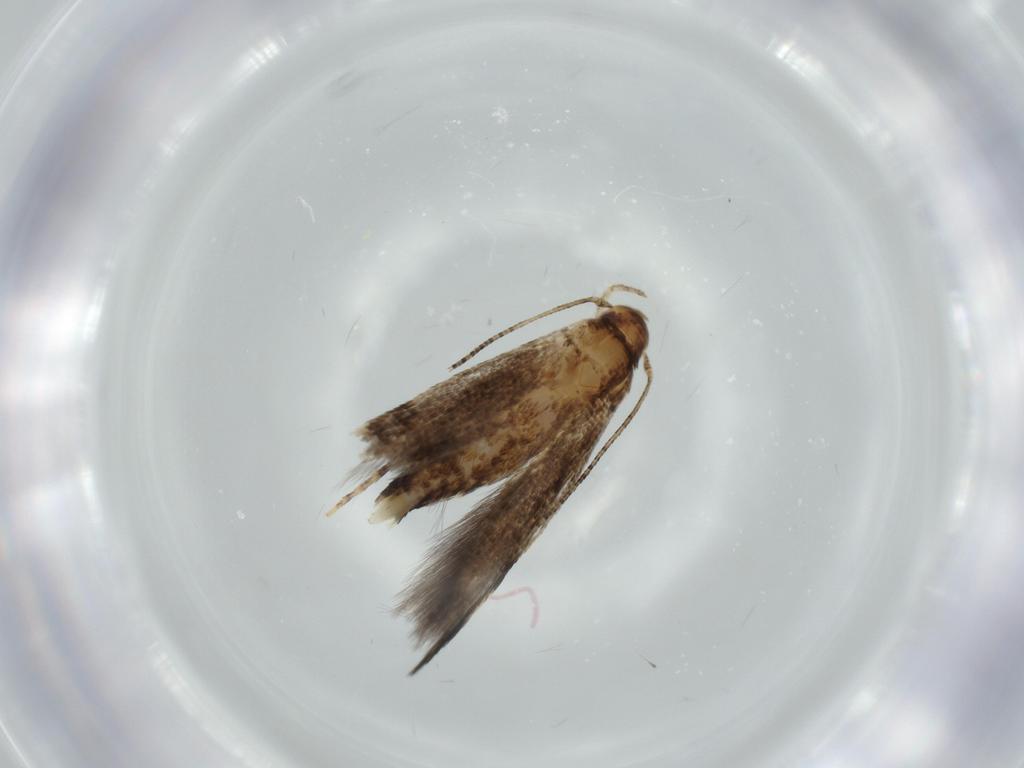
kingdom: Animalia
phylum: Arthropoda
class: Insecta
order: Lepidoptera
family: Momphidae
